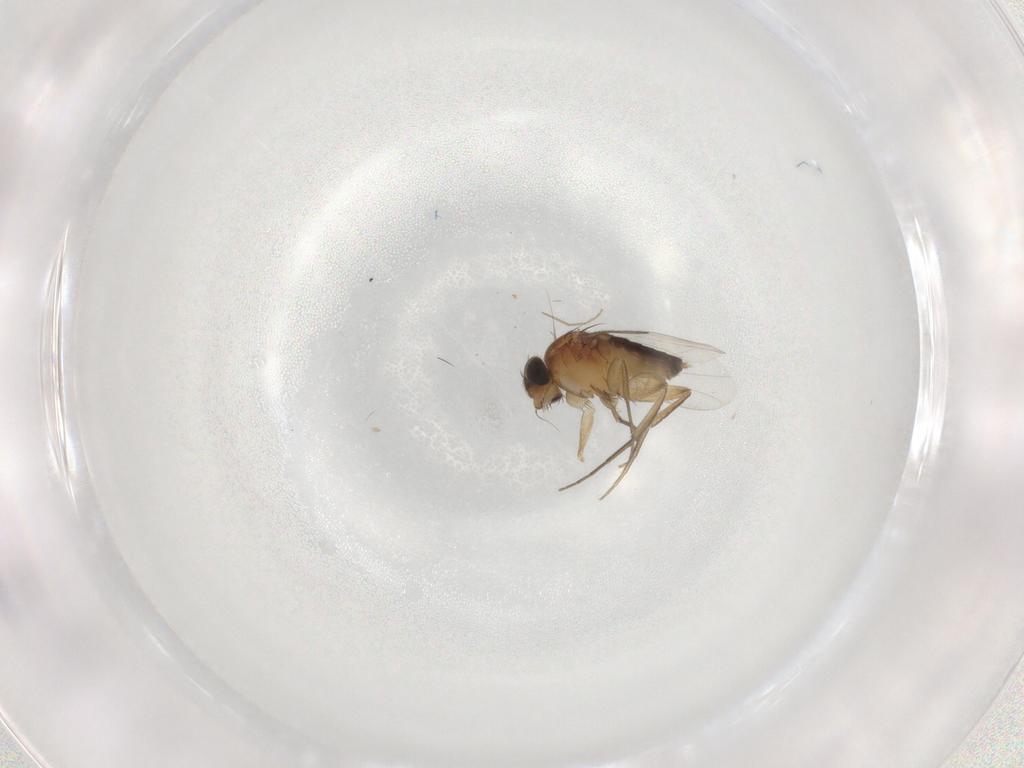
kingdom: Animalia
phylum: Arthropoda
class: Insecta
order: Diptera
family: Phoridae
